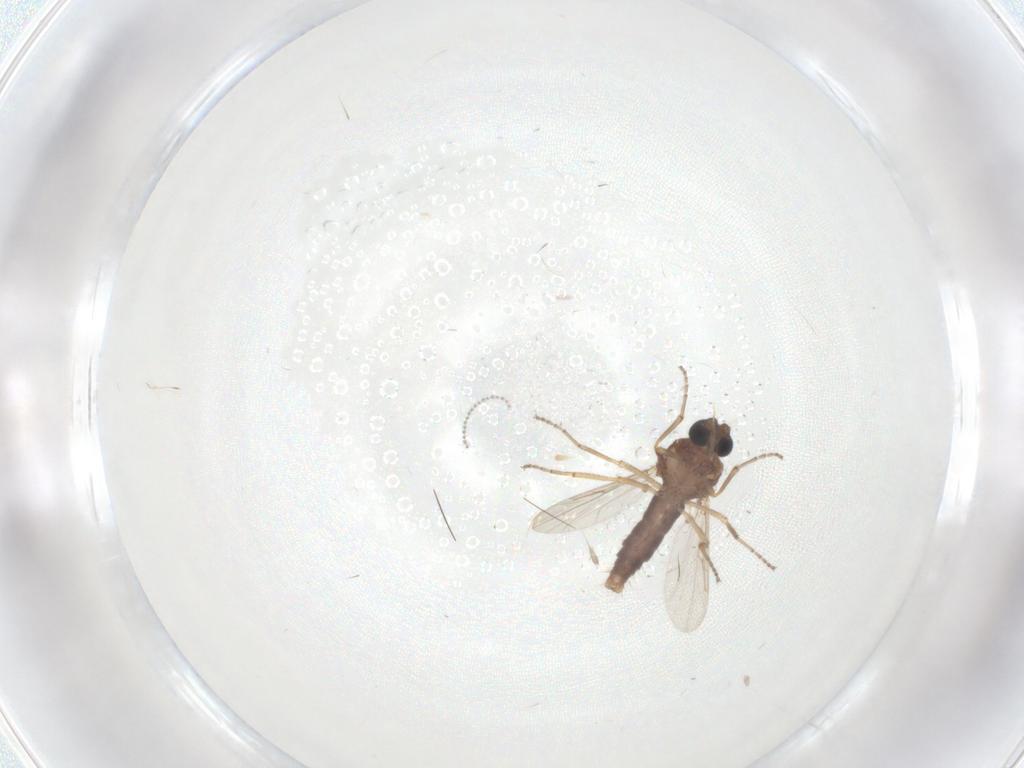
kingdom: Animalia
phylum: Arthropoda
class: Insecta
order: Diptera
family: Ceratopogonidae
